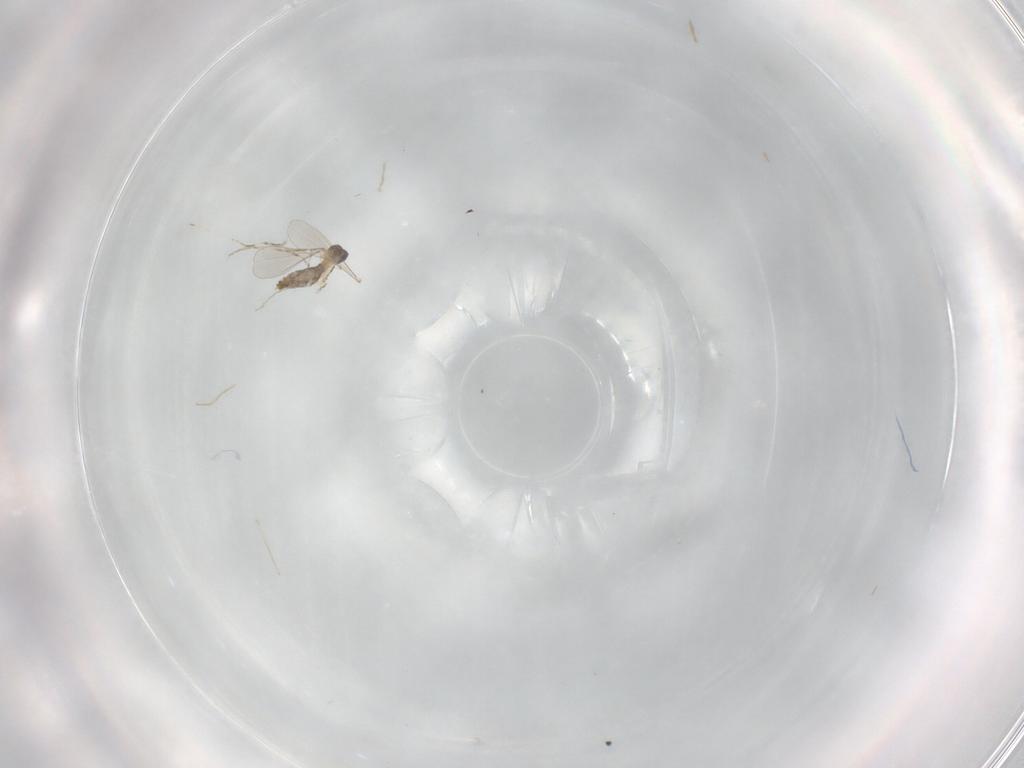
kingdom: Animalia
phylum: Arthropoda
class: Insecta
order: Diptera
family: Cecidomyiidae
